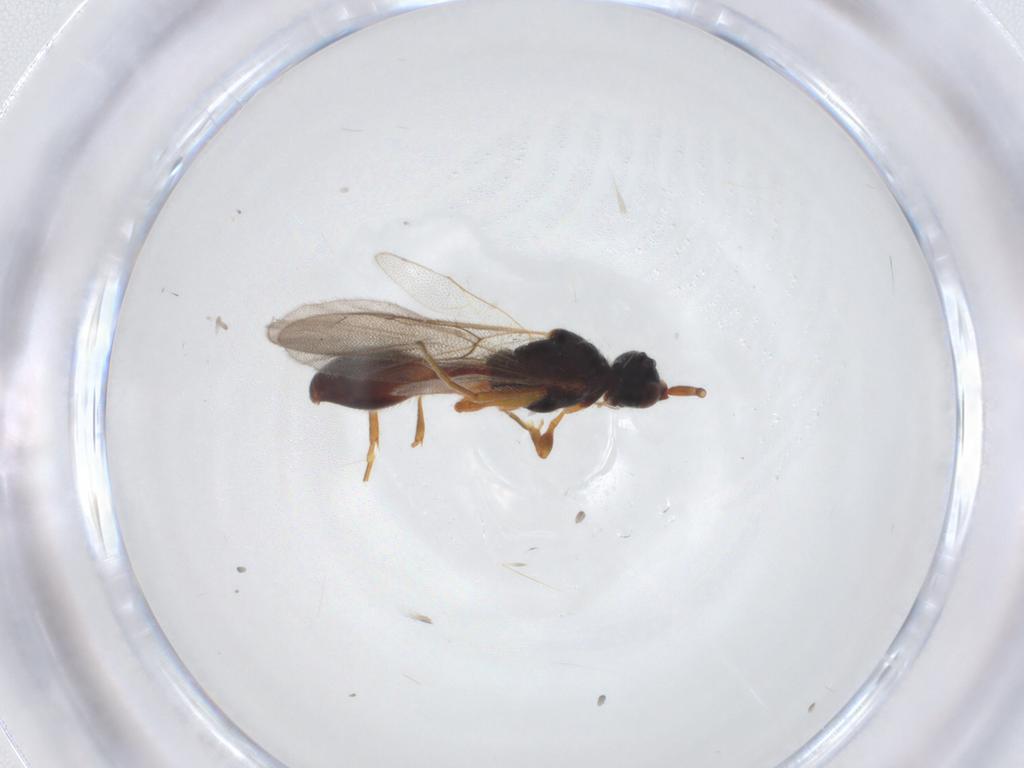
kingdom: Animalia
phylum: Arthropoda
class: Insecta
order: Hymenoptera
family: Diapriidae
